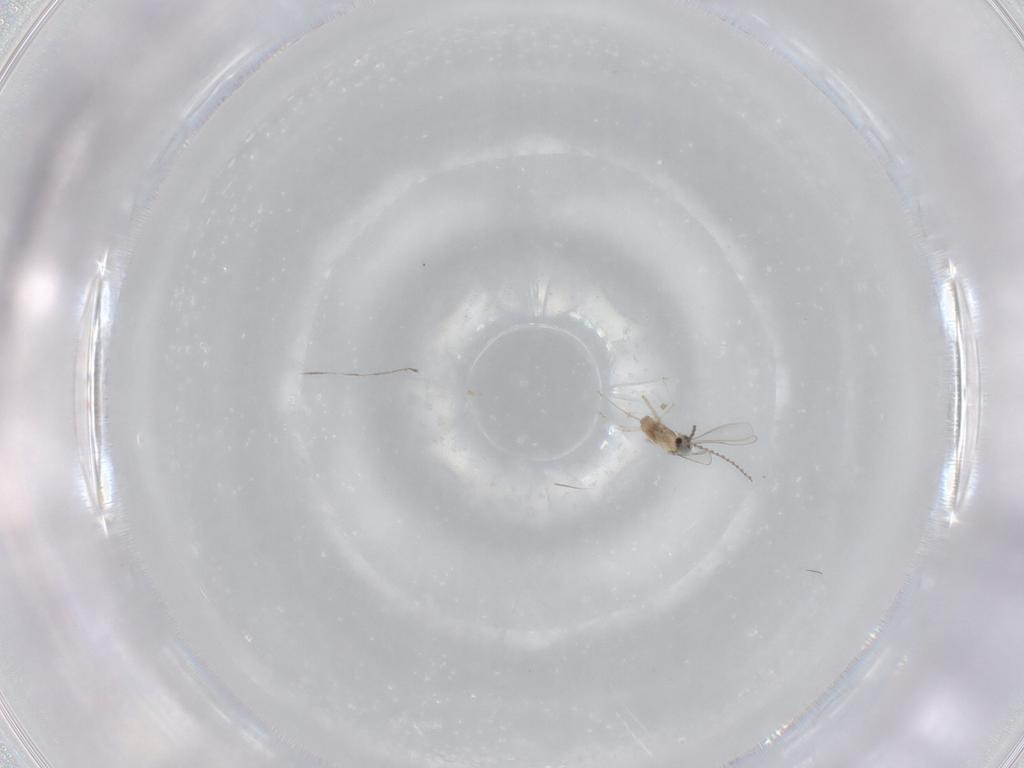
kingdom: Animalia
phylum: Arthropoda
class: Insecta
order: Diptera
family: Cecidomyiidae
